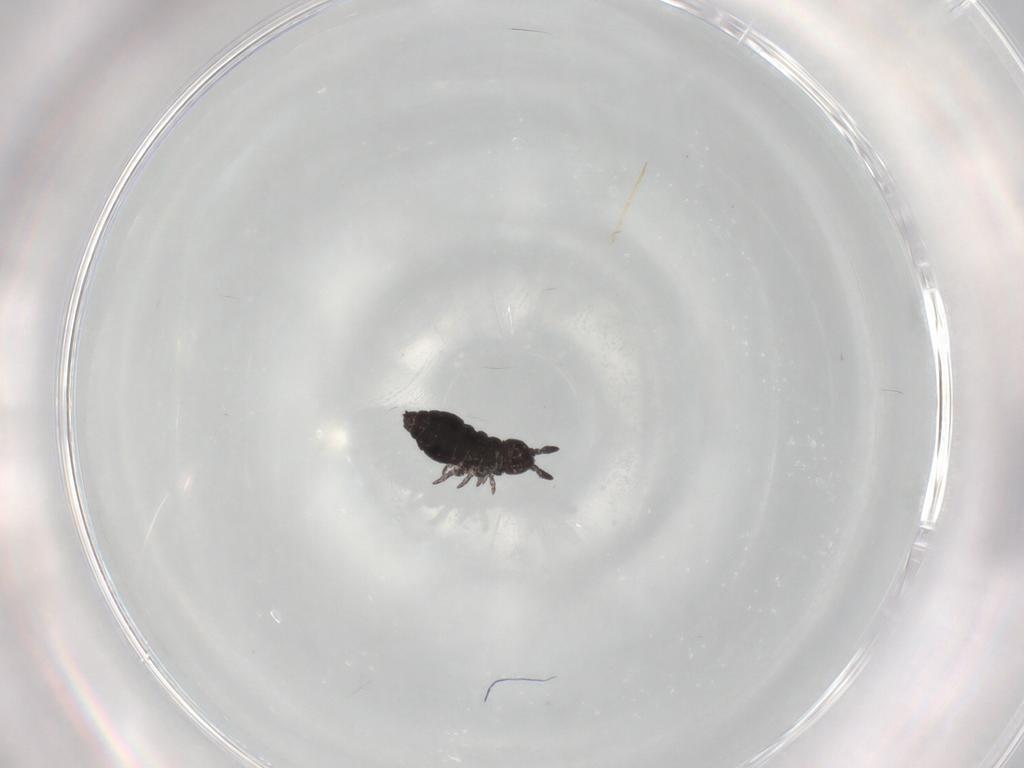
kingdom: Animalia
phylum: Arthropoda
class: Collembola
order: Poduromorpha
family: Hypogastruridae
